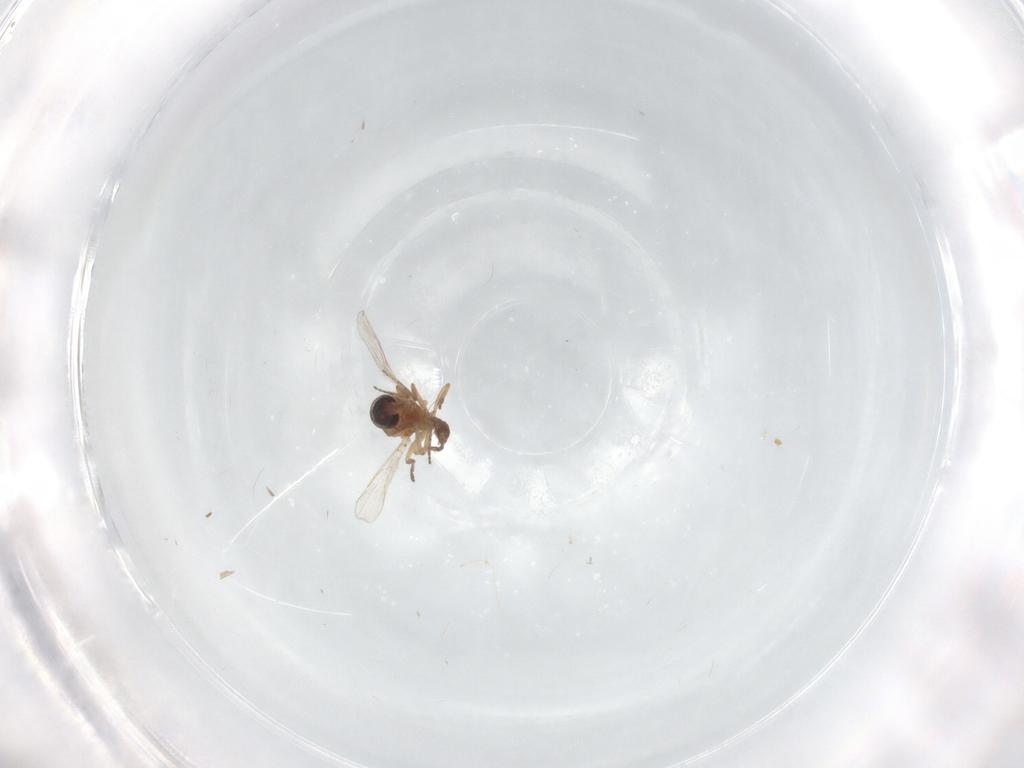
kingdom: Animalia
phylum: Arthropoda
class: Insecta
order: Diptera
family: Ceratopogonidae
